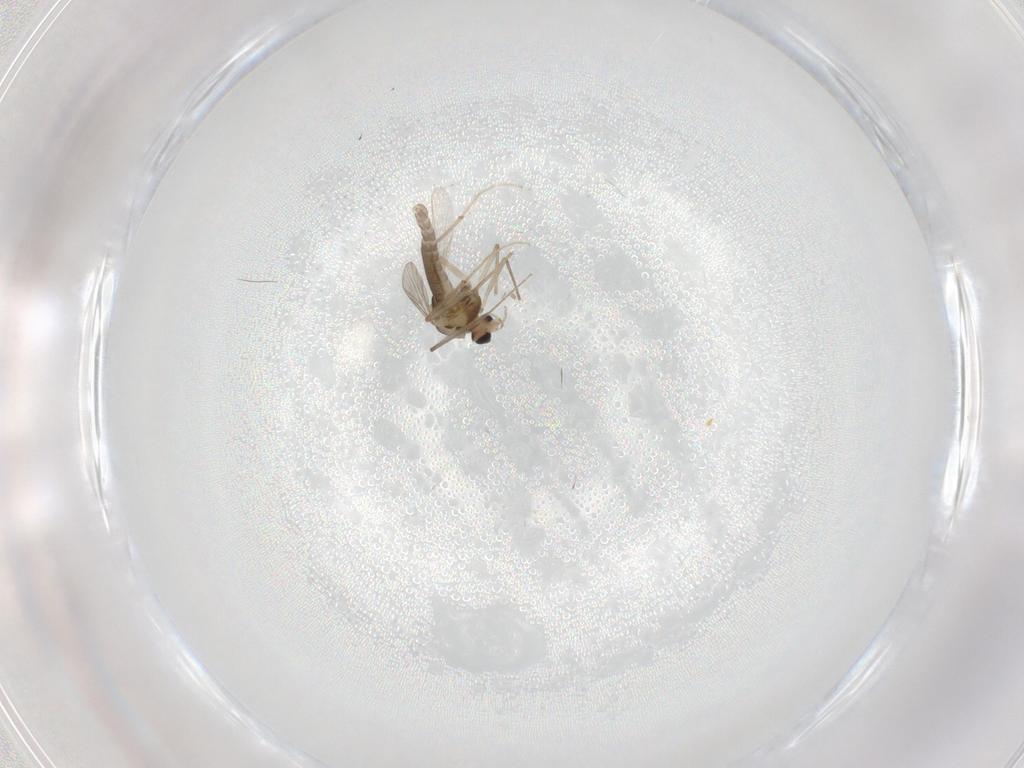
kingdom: Animalia
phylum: Arthropoda
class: Insecta
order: Diptera
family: Chironomidae
